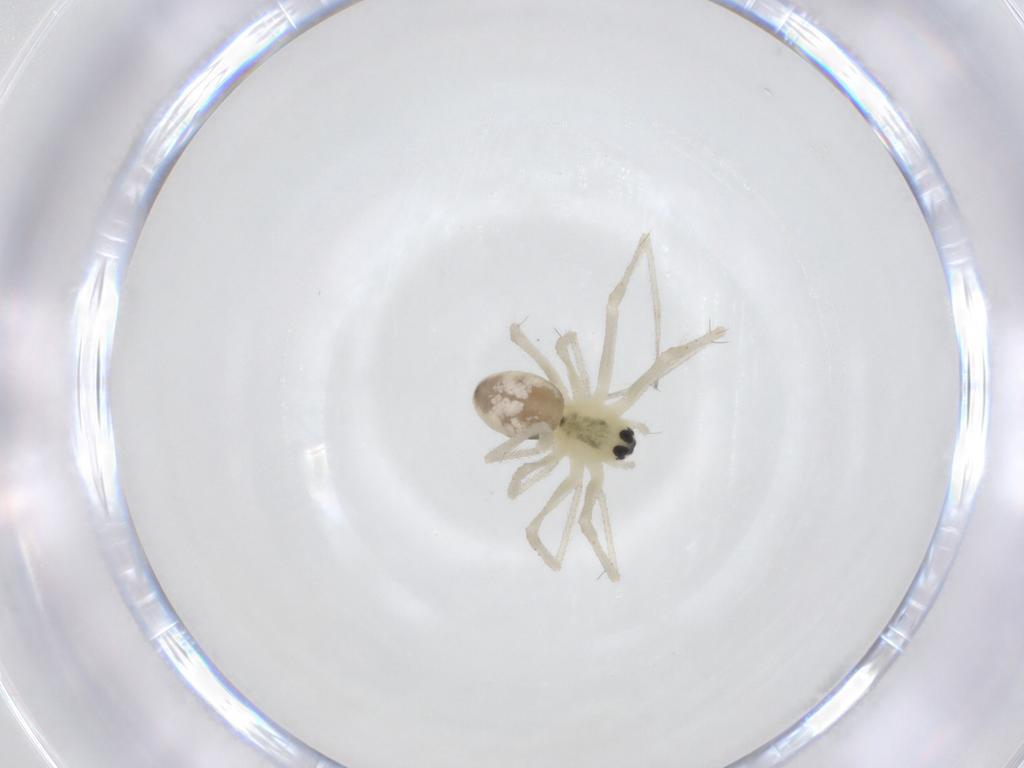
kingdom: Animalia
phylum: Arthropoda
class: Arachnida
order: Araneae
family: Linyphiidae
